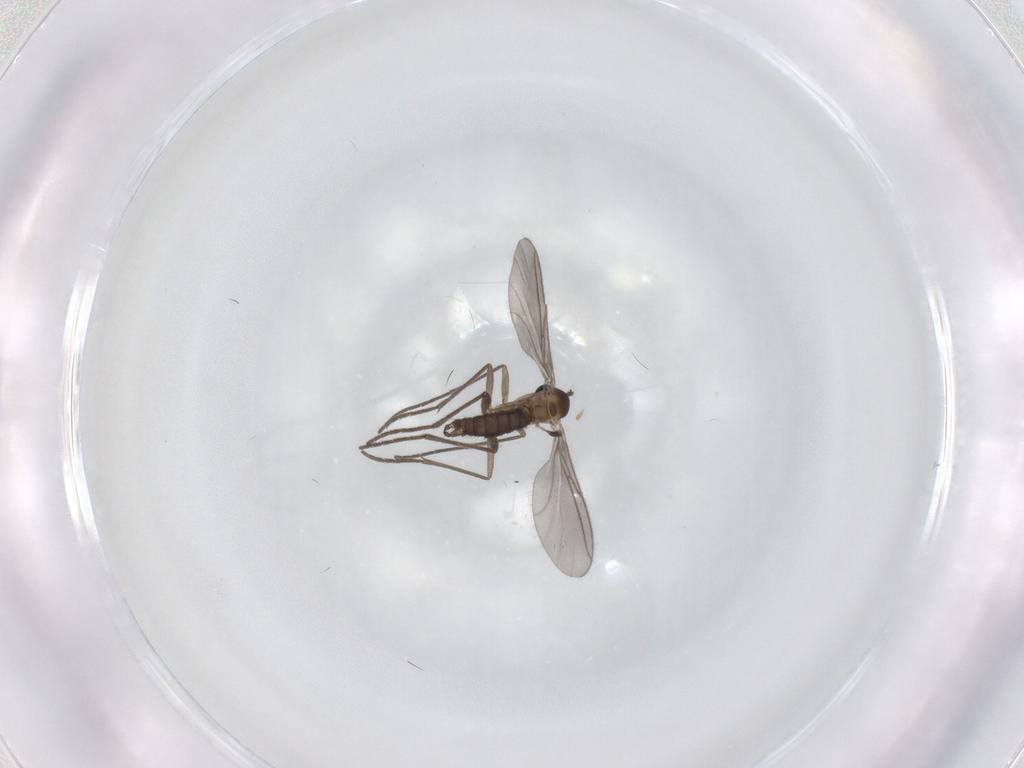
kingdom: Animalia
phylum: Arthropoda
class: Insecta
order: Diptera
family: Sciaridae
